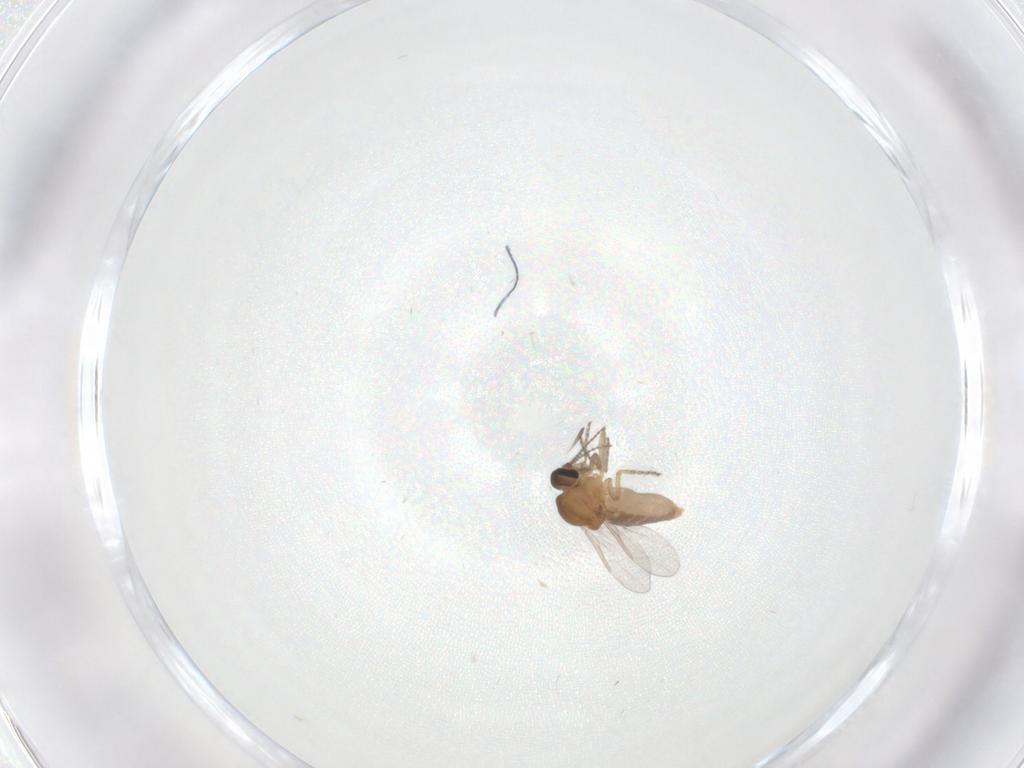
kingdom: Animalia
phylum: Arthropoda
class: Insecta
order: Diptera
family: Ceratopogonidae
